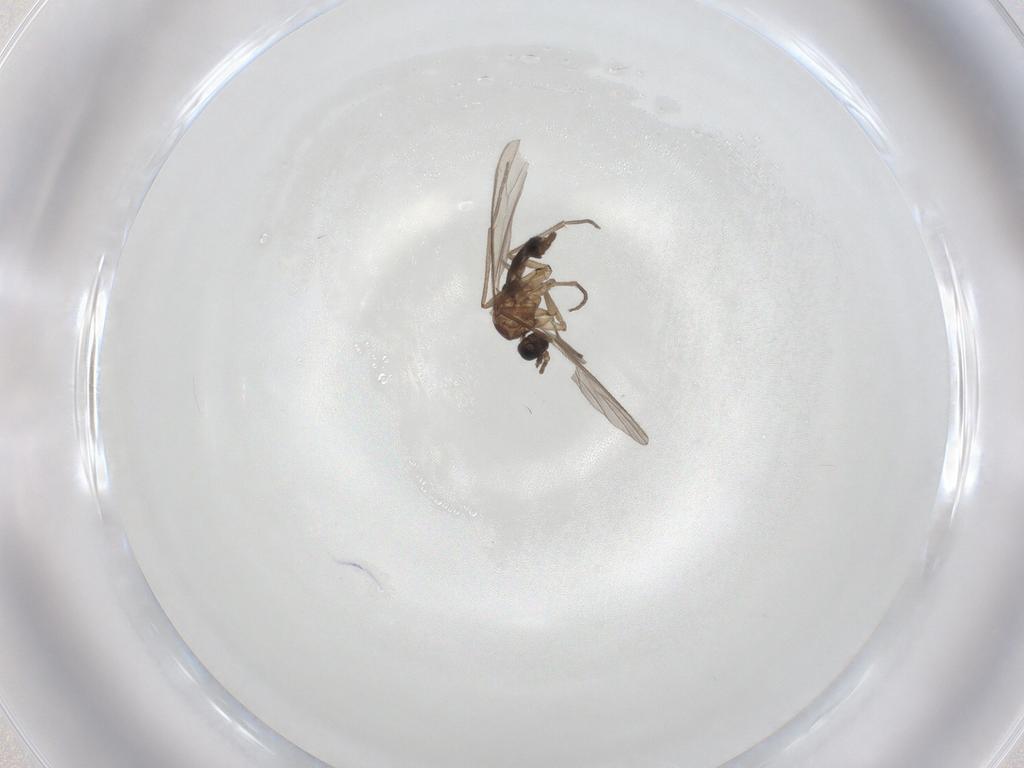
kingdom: Animalia
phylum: Arthropoda
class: Insecta
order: Diptera
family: Sciaridae
